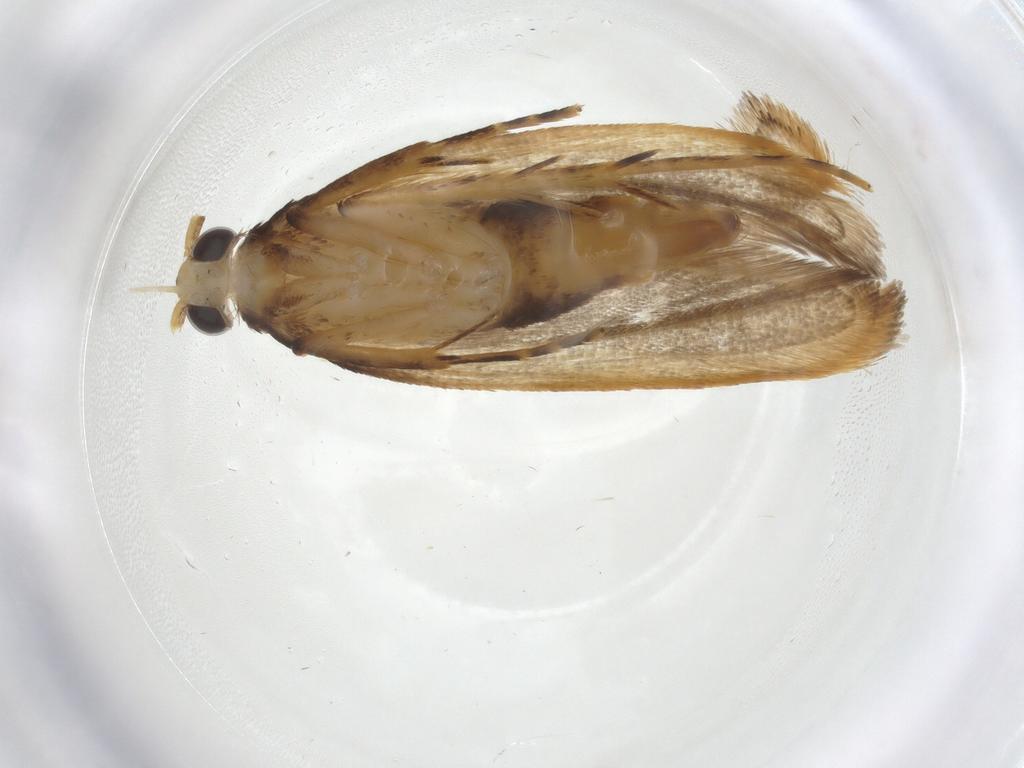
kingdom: Animalia
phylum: Arthropoda
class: Insecta
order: Lepidoptera
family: Lecithoceridae
